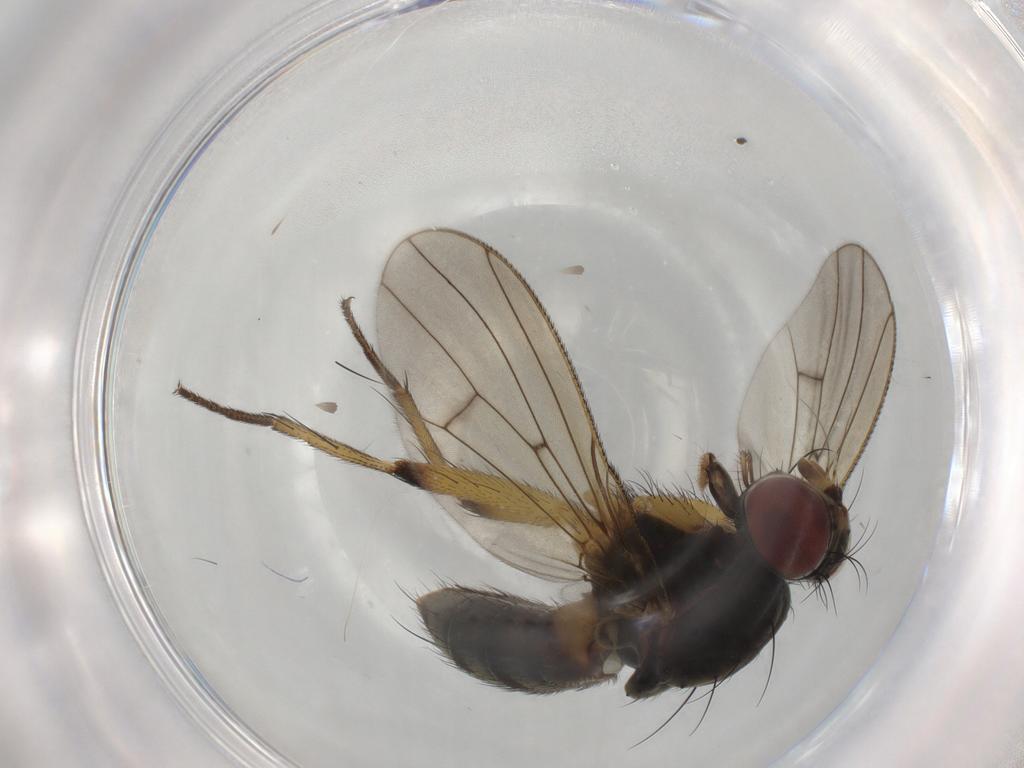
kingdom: Animalia
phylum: Arthropoda
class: Insecta
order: Diptera
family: Muscidae
